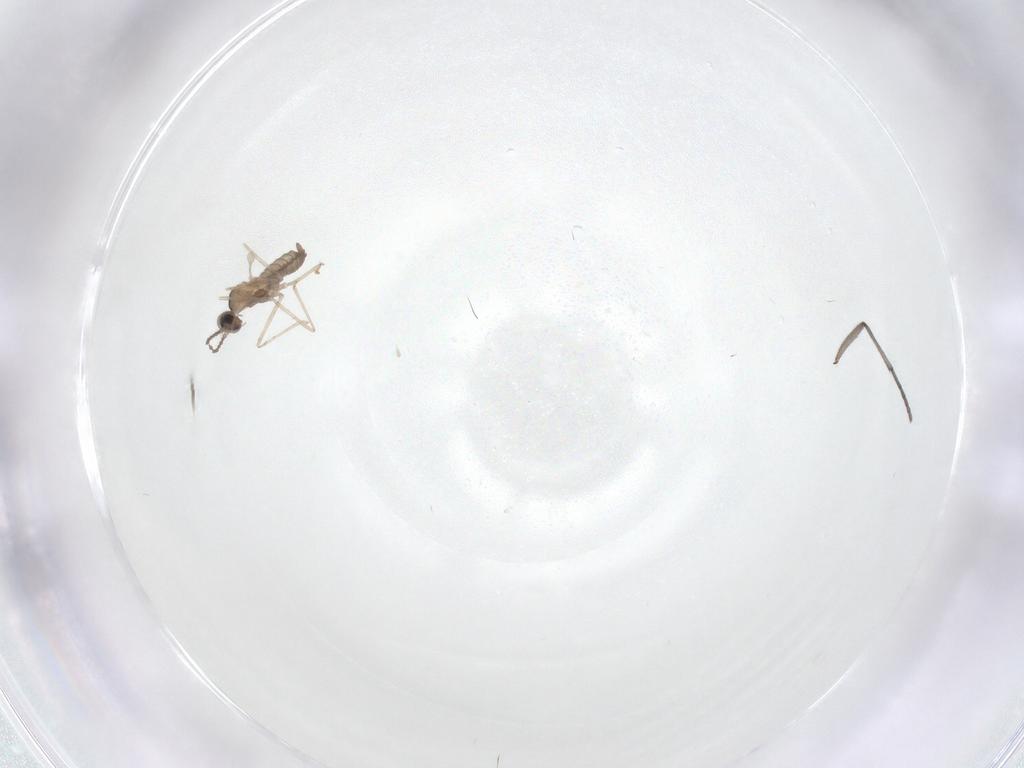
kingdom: Animalia
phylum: Arthropoda
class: Insecta
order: Diptera
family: Cecidomyiidae
